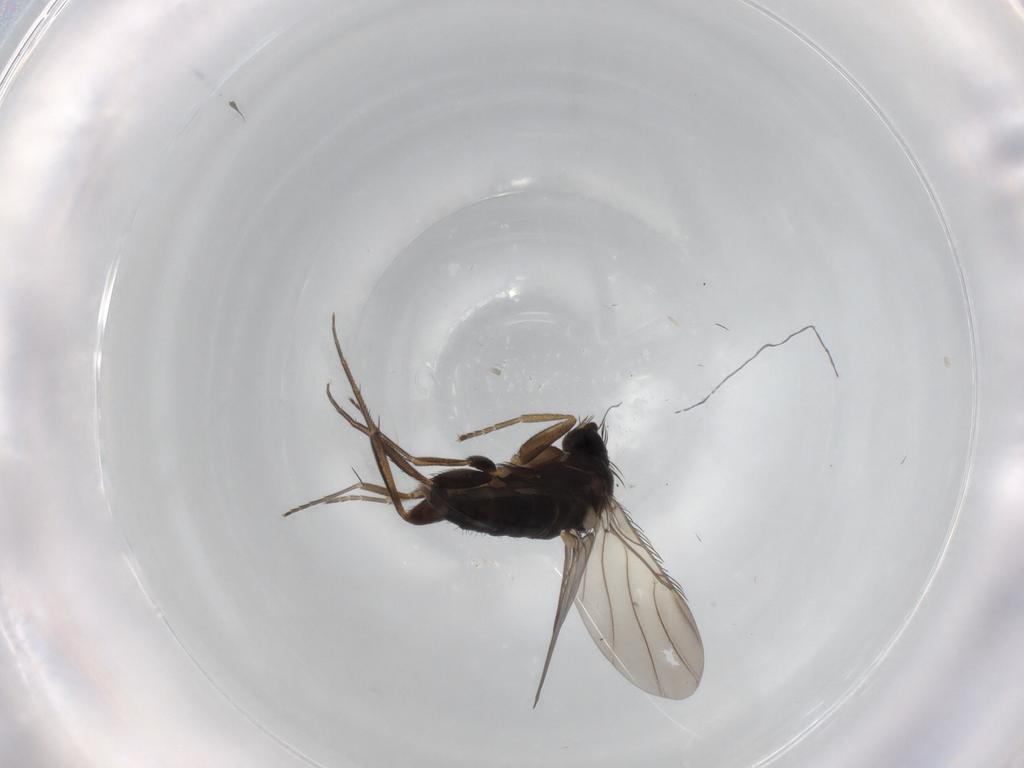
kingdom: Animalia
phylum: Arthropoda
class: Insecta
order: Diptera
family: Phoridae
